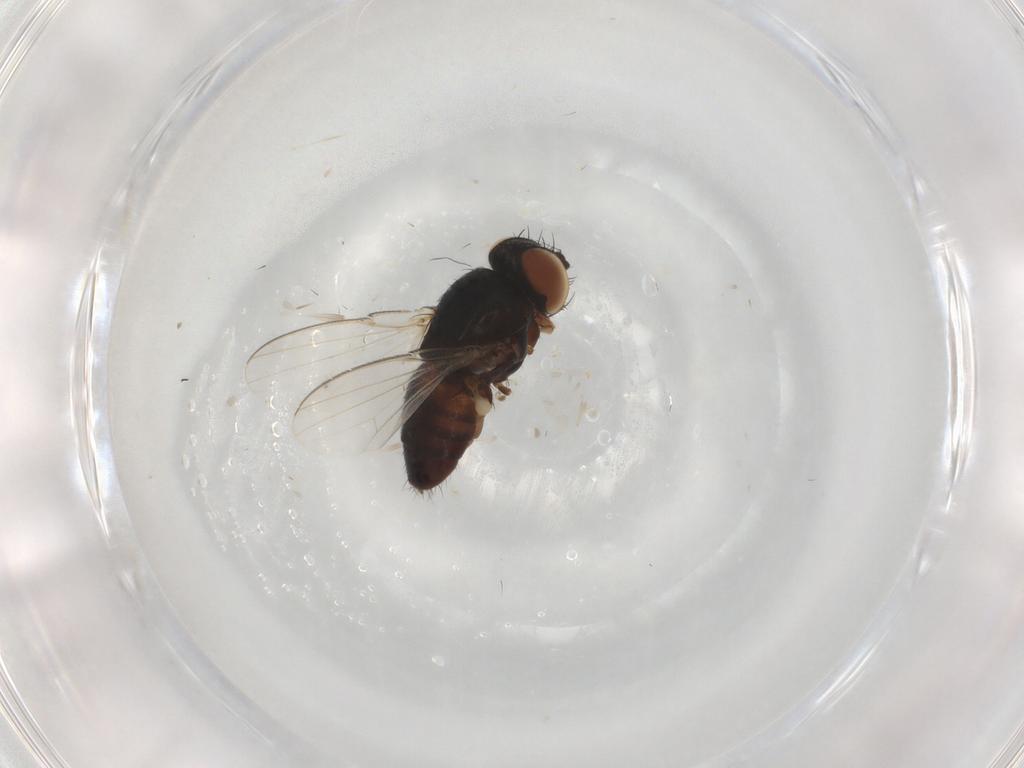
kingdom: Animalia
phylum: Arthropoda
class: Insecta
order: Diptera
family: Milichiidae
